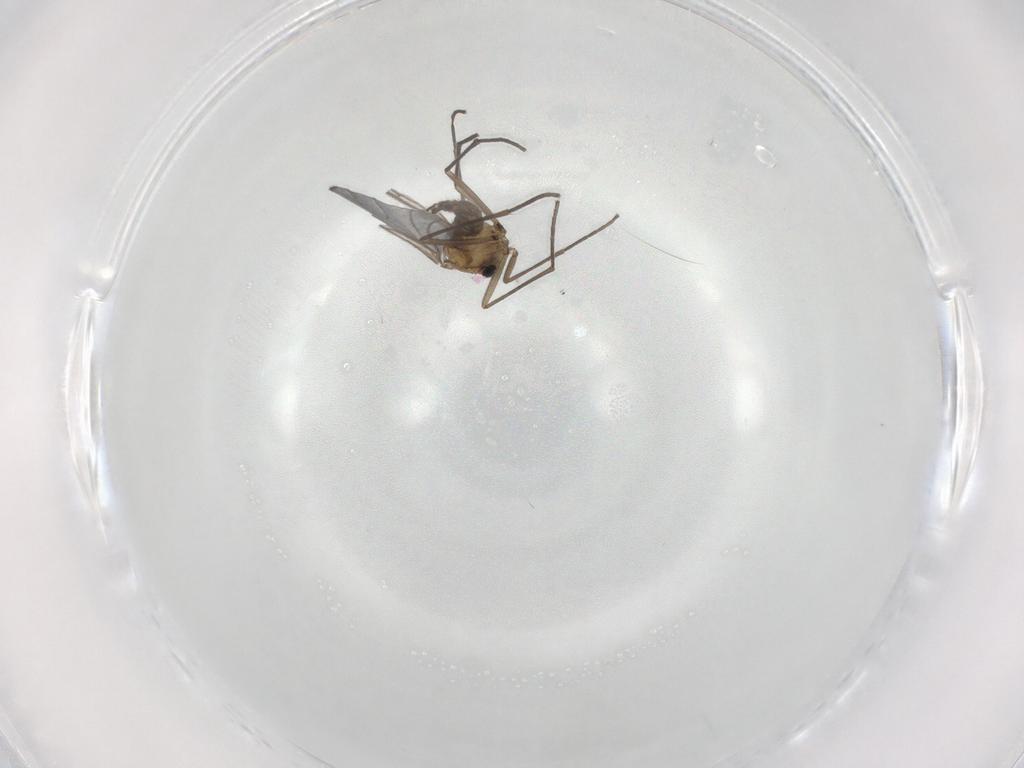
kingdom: Animalia
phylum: Arthropoda
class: Insecta
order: Diptera
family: Sciaridae
